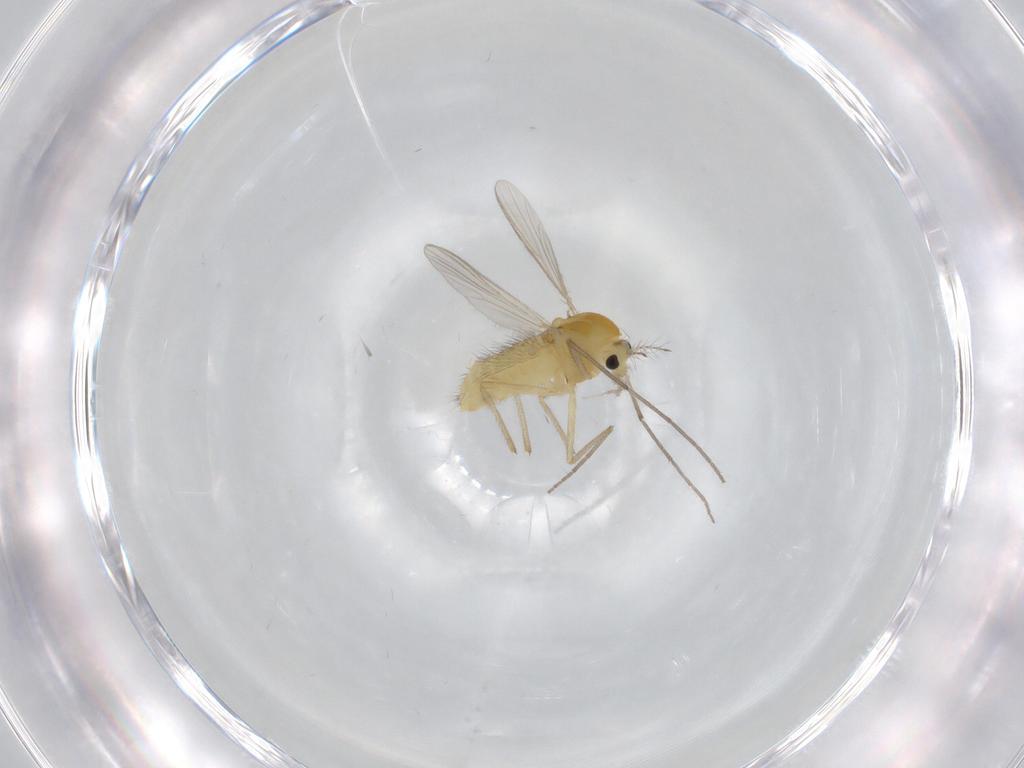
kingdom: Animalia
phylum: Arthropoda
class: Insecta
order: Diptera
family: Chironomidae
